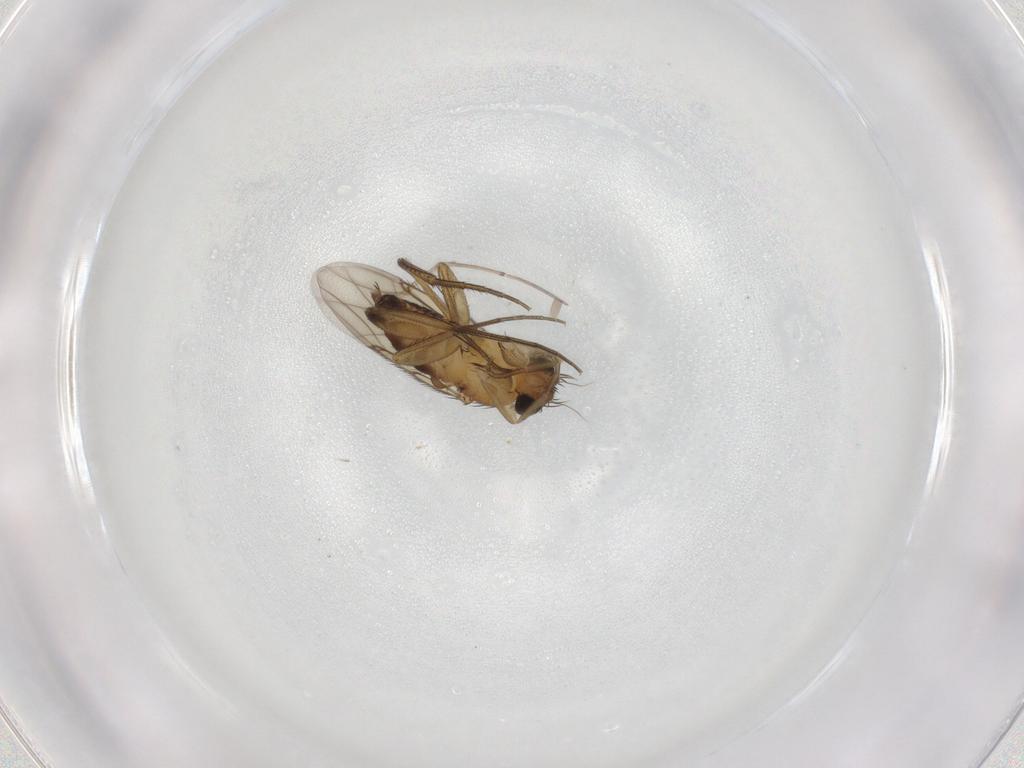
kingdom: Animalia
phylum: Arthropoda
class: Insecta
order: Diptera
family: Phoridae
